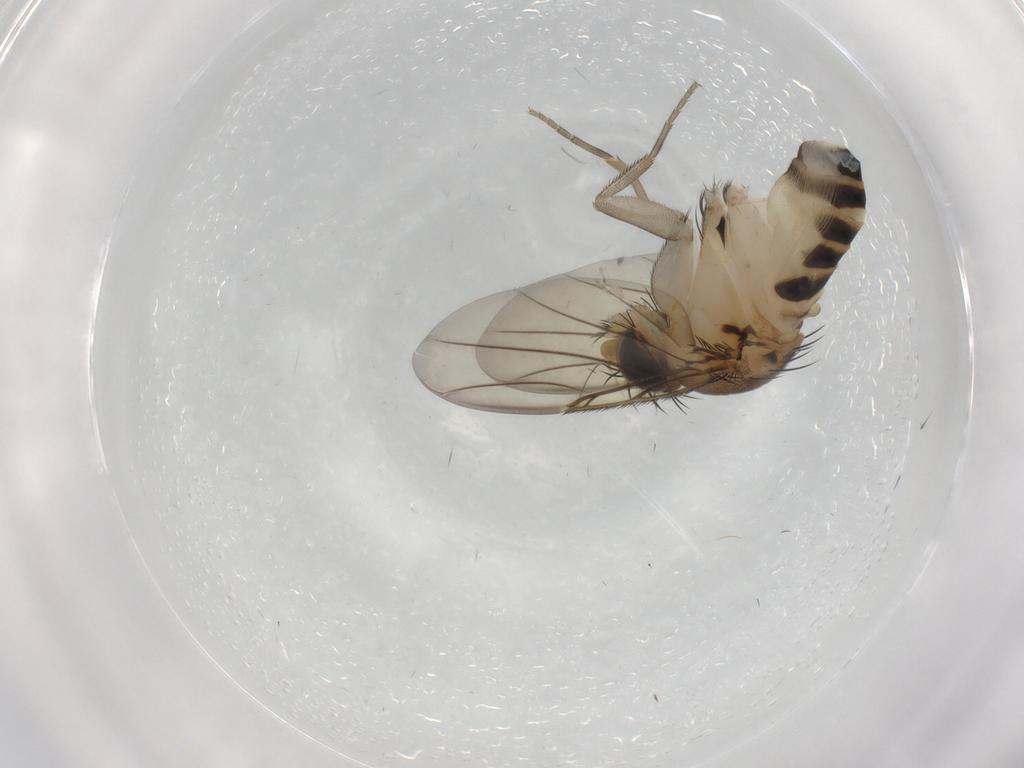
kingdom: Animalia
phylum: Arthropoda
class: Insecta
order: Diptera
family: Phoridae
